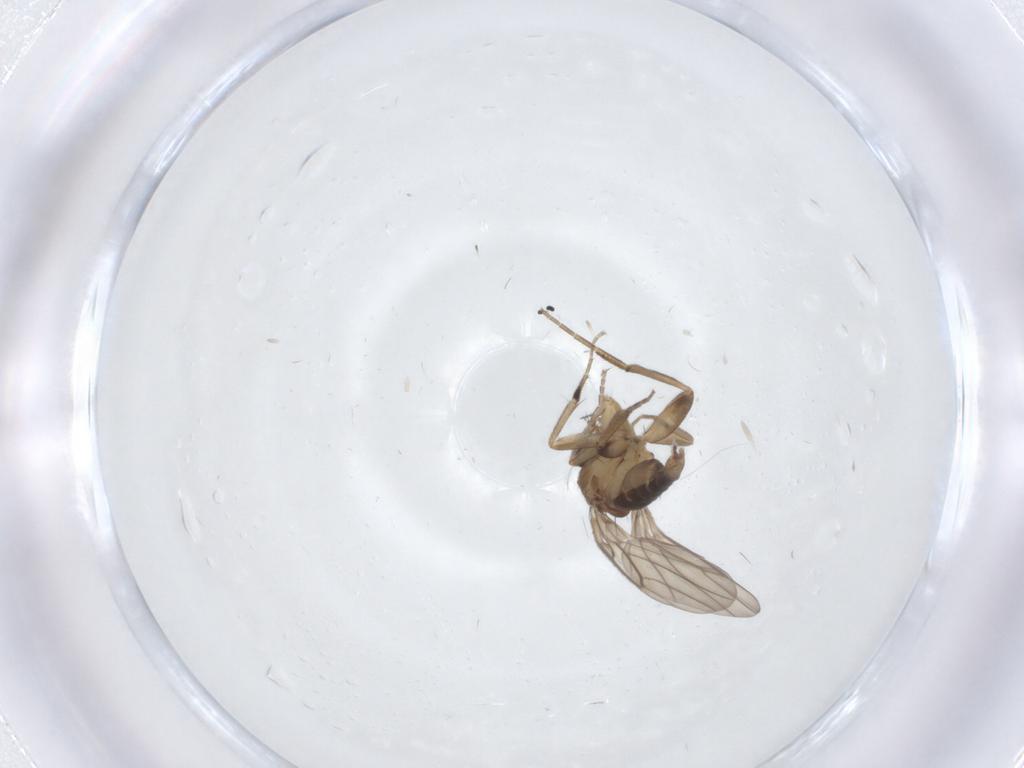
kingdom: Animalia
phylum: Arthropoda
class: Insecta
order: Diptera
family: Phoridae
